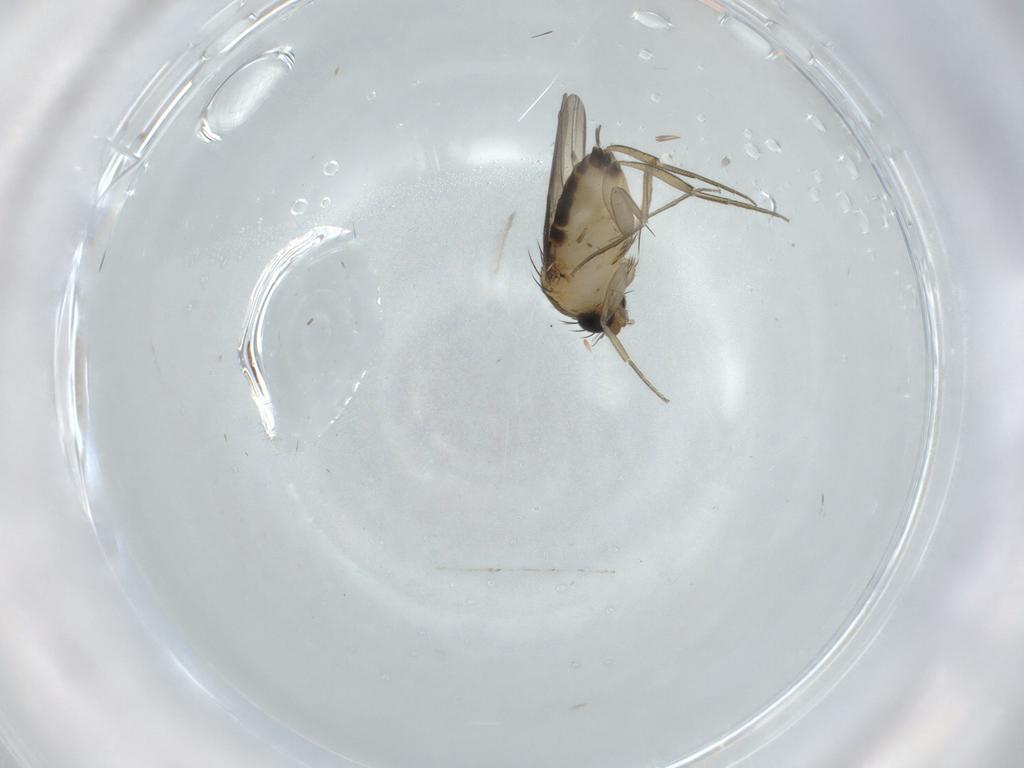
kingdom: Animalia
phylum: Arthropoda
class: Insecta
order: Diptera
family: Phoridae
